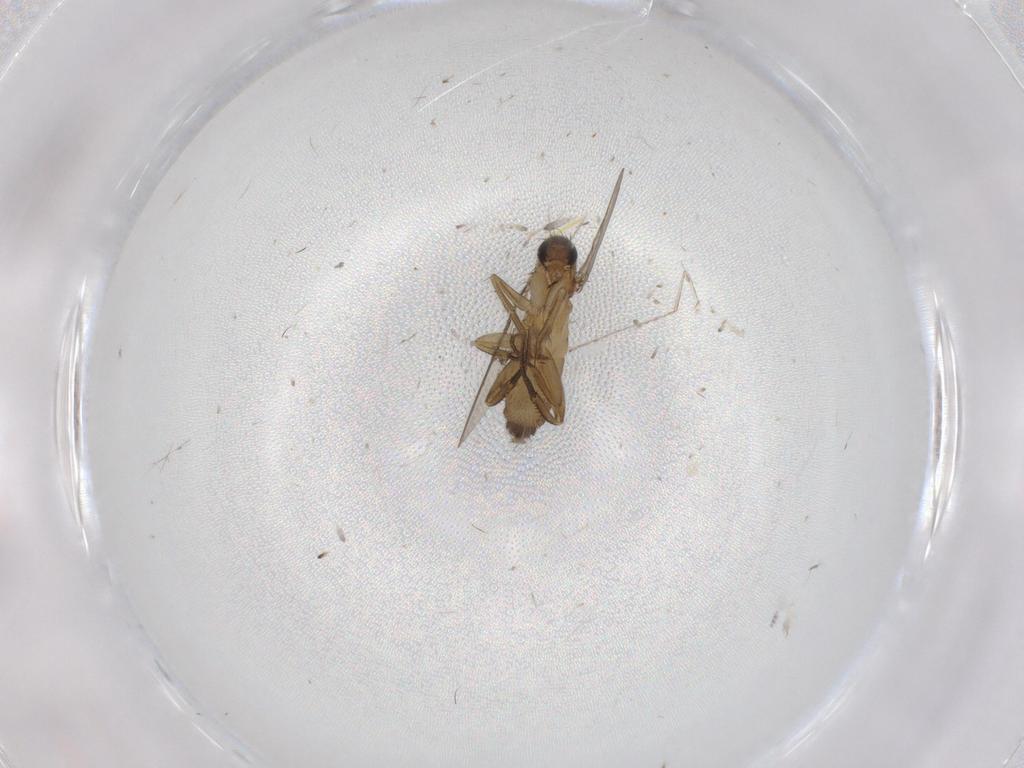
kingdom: Animalia
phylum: Arthropoda
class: Insecta
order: Diptera
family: Phoridae
